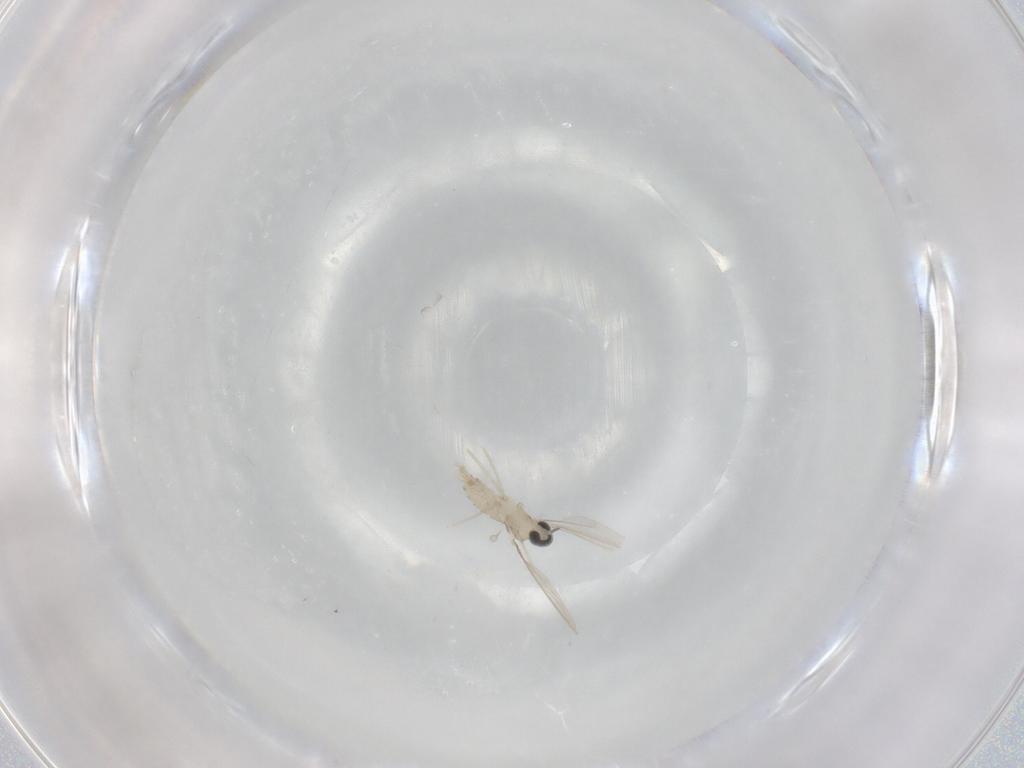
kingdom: Animalia
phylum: Arthropoda
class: Insecta
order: Diptera
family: Cecidomyiidae
